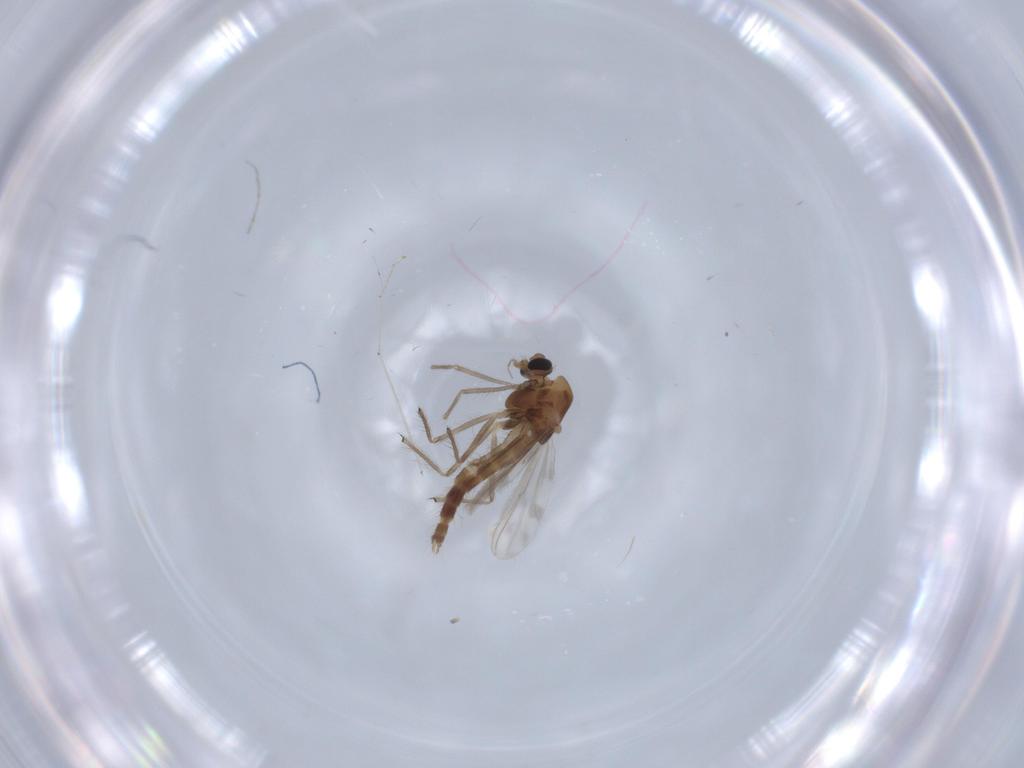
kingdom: Animalia
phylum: Arthropoda
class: Insecta
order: Diptera
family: Chironomidae
